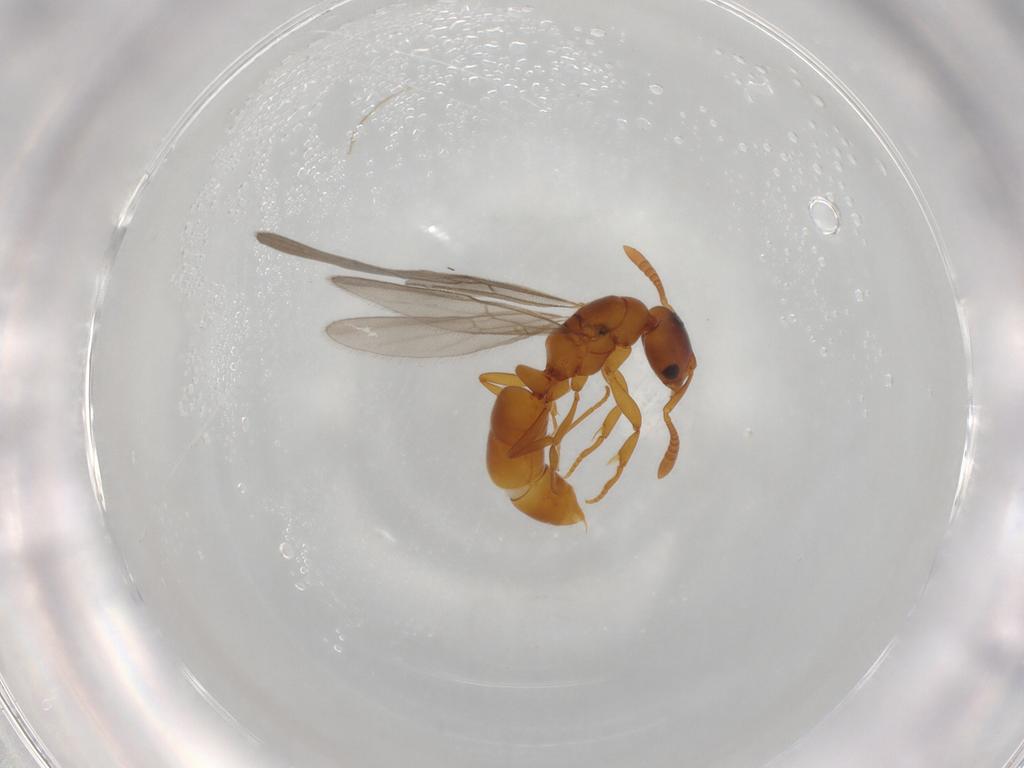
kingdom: Animalia
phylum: Arthropoda
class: Insecta
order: Hymenoptera
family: Formicidae
